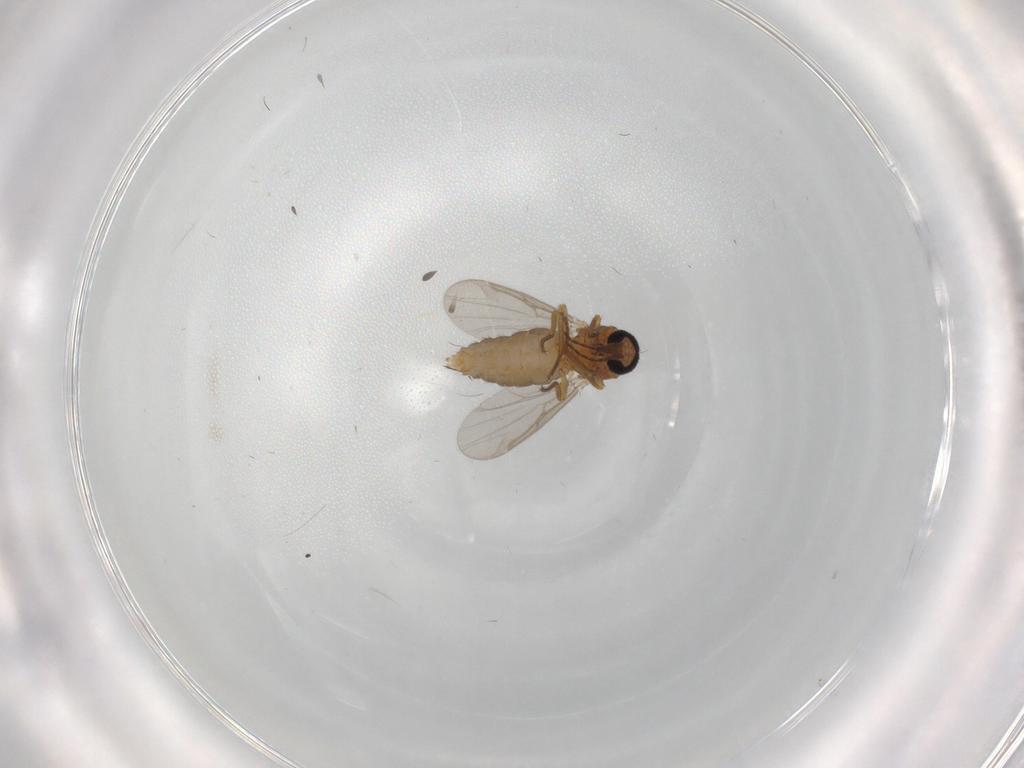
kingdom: Animalia
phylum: Arthropoda
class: Insecta
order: Diptera
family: Ceratopogonidae
